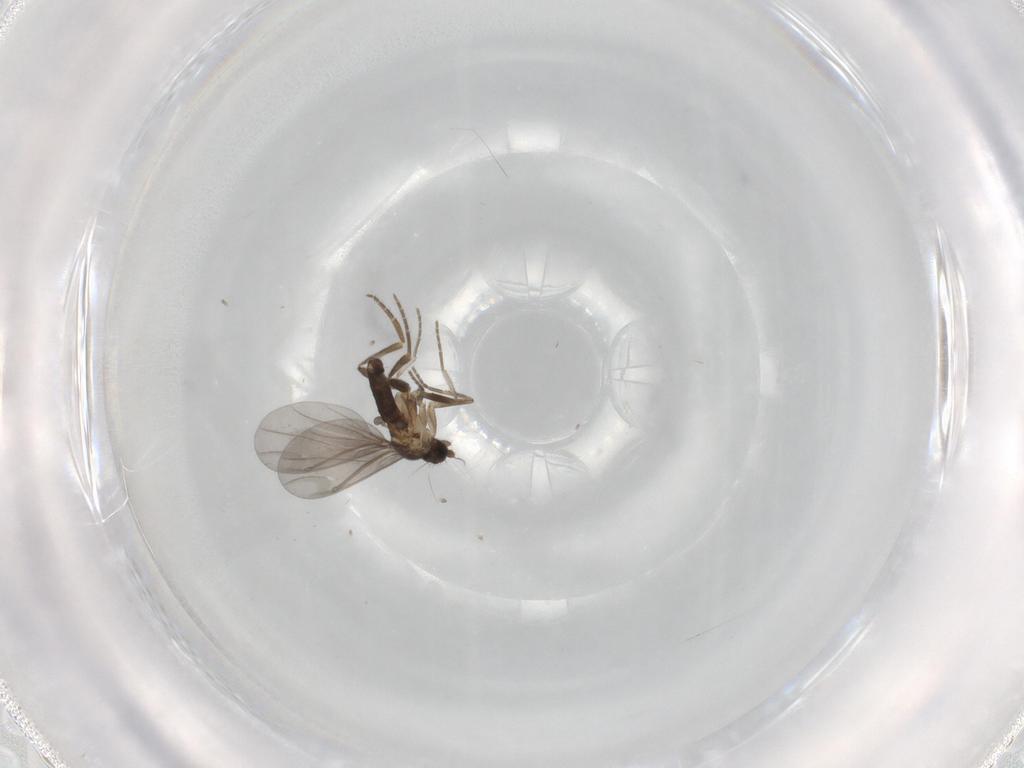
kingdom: Animalia
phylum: Arthropoda
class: Insecta
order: Diptera
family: Phoridae
